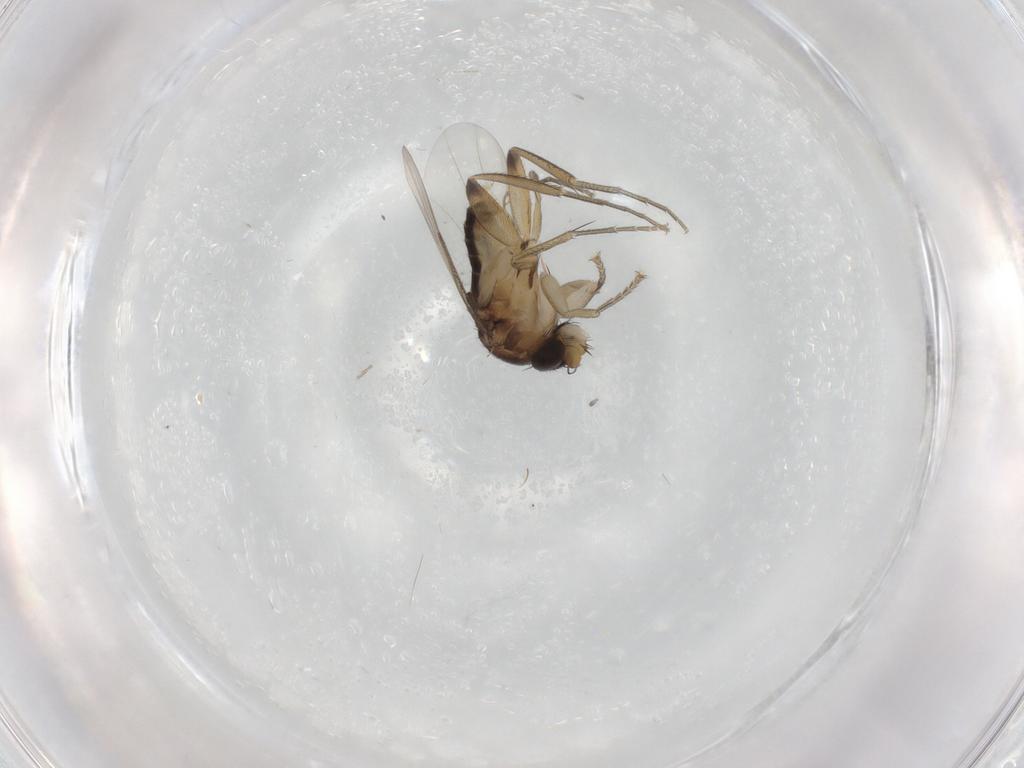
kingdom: Animalia
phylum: Arthropoda
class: Insecta
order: Diptera
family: Phoridae
